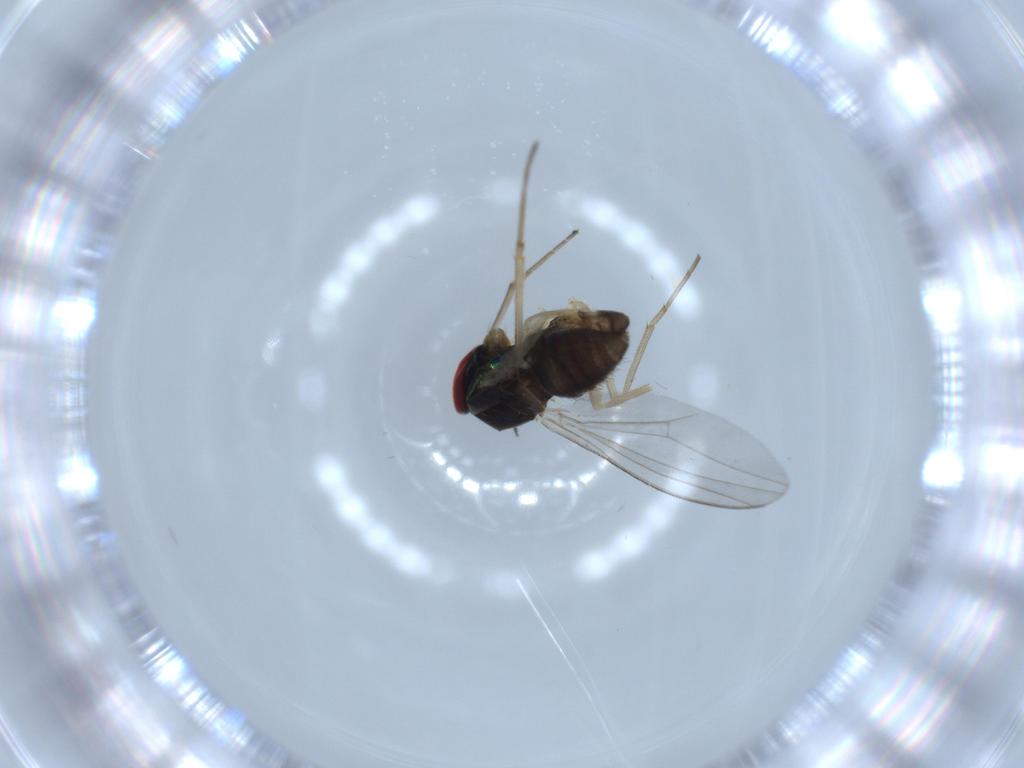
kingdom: Animalia
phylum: Arthropoda
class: Insecta
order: Diptera
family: Dolichopodidae
